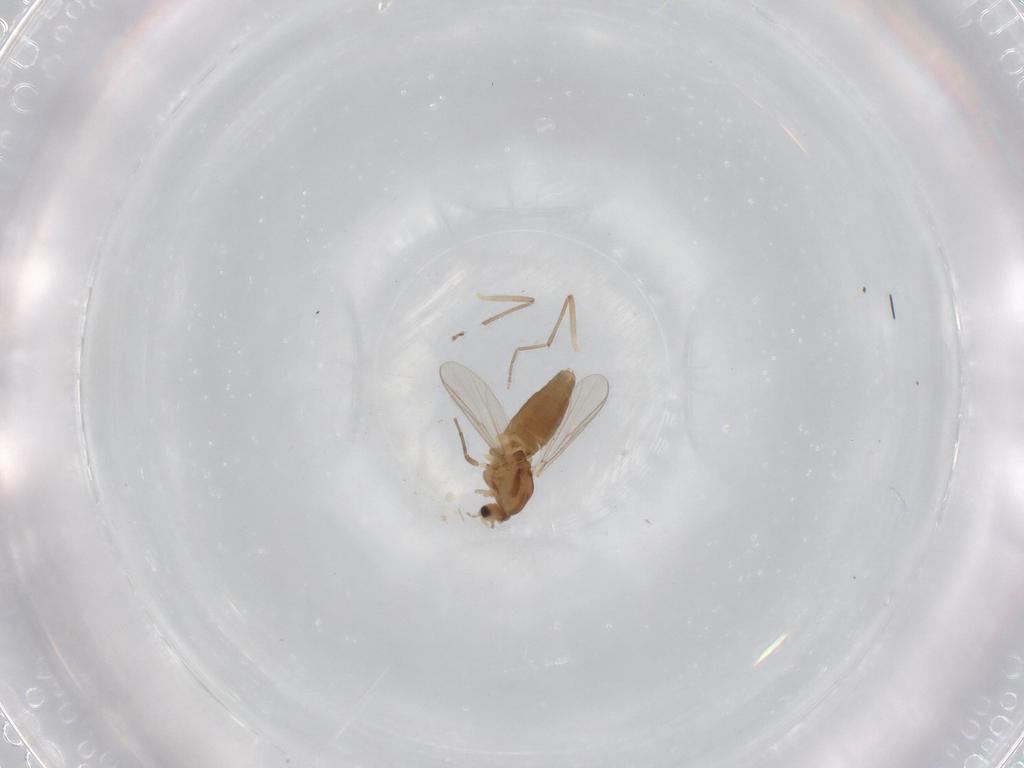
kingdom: Animalia
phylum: Arthropoda
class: Insecta
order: Diptera
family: Chironomidae
